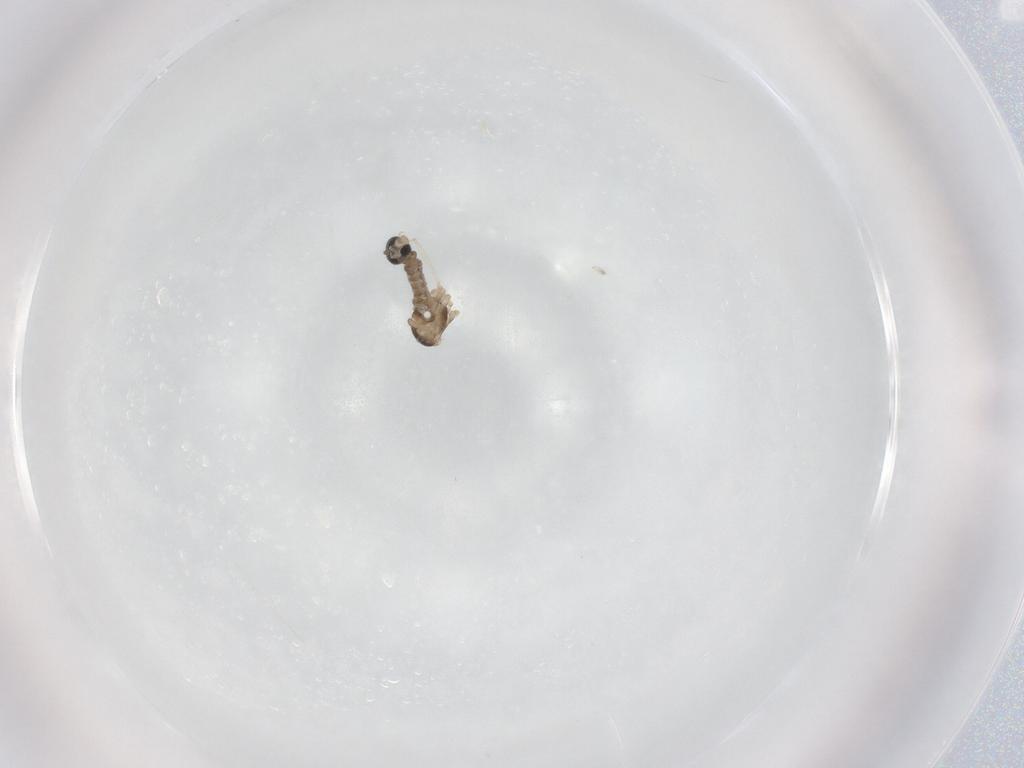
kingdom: Animalia
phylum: Arthropoda
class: Insecta
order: Diptera
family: Cecidomyiidae
